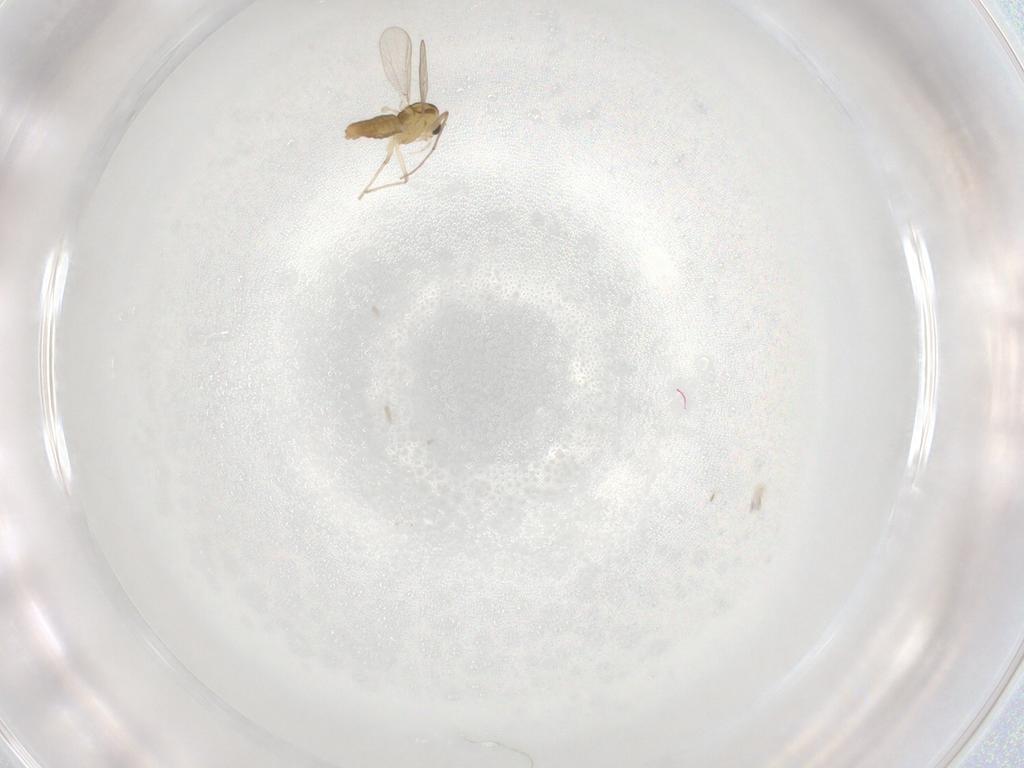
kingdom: Animalia
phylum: Arthropoda
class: Insecta
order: Diptera
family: Chironomidae
